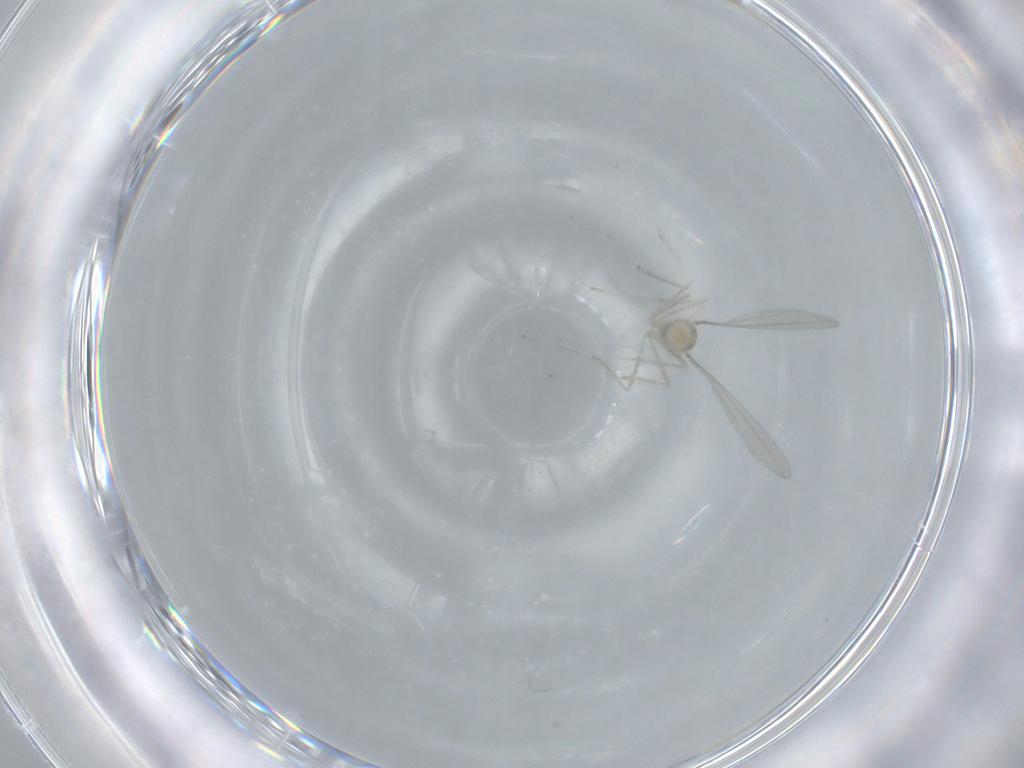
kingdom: Animalia
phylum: Arthropoda
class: Insecta
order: Diptera
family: Cecidomyiidae
